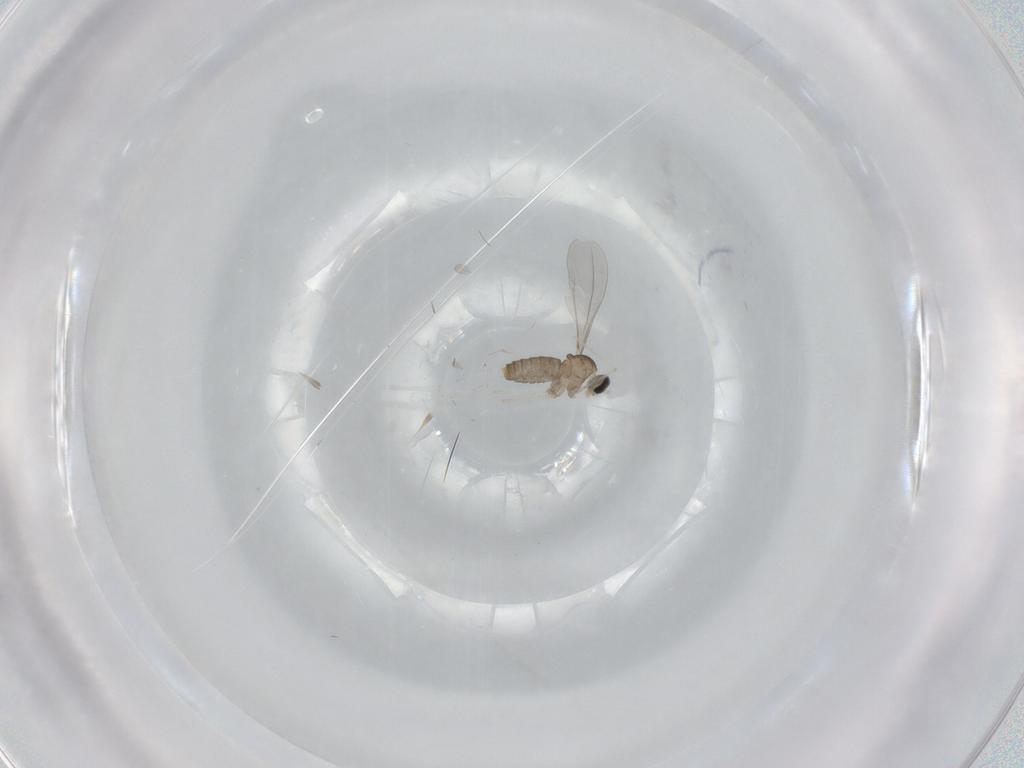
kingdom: Animalia
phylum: Arthropoda
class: Insecta
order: Diptera
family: Cecidomyiidae
